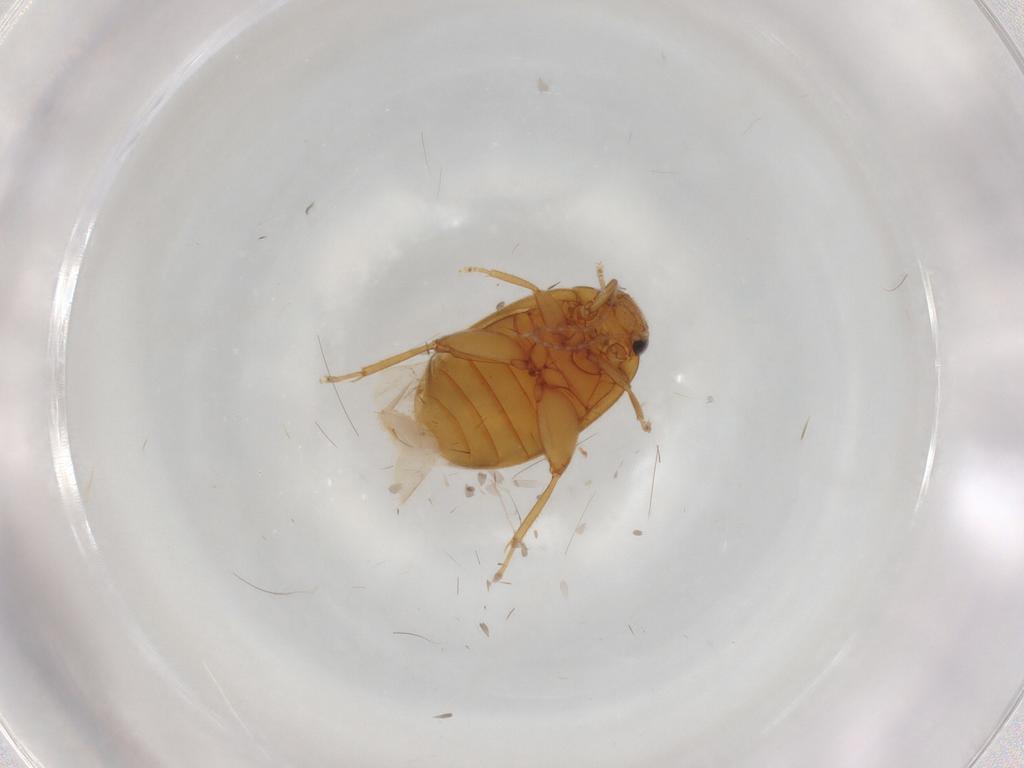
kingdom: Animalia
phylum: Arthropoda
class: Insecta
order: Coleoptera
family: Scirtidae
